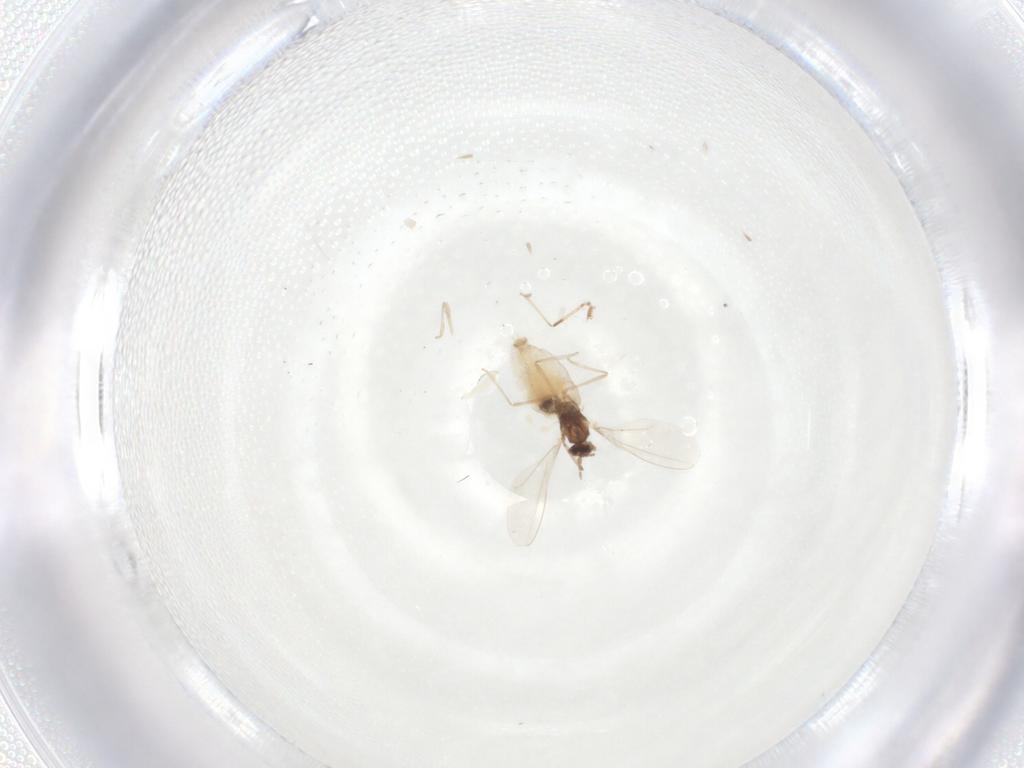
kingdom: Animalia
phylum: Arthropoda
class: Insecta
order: Diptera
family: Cecidomyiidae
